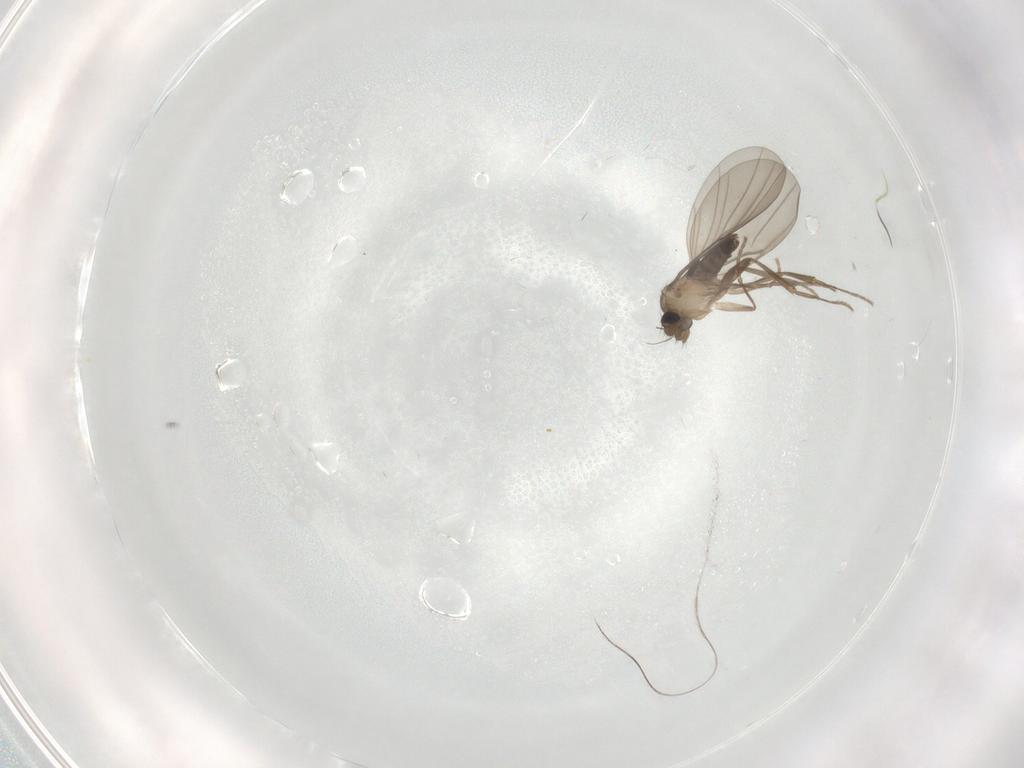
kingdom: Animalia
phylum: Arthropoda
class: Insecta
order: Diptera
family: Phoridae
